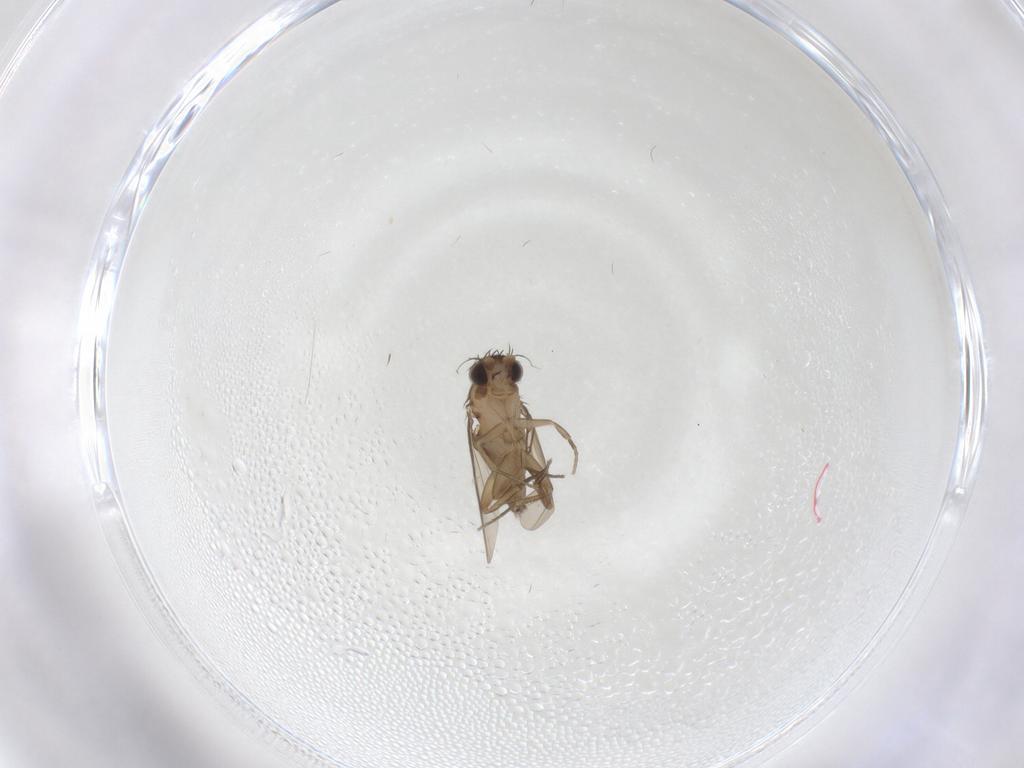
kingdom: Animalia
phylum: Arthropoda
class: Insecta
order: Diptera
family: Phoridae
